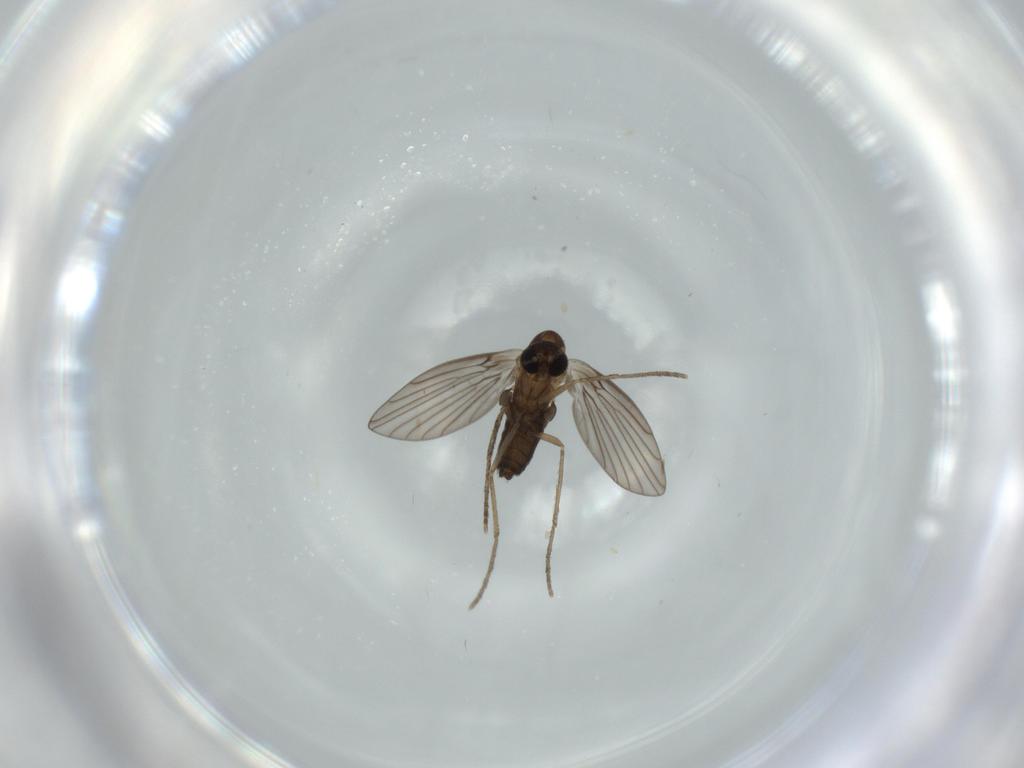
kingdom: Animalia
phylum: Arthropoda
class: Insecta
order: Diptera
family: Psychodidae
